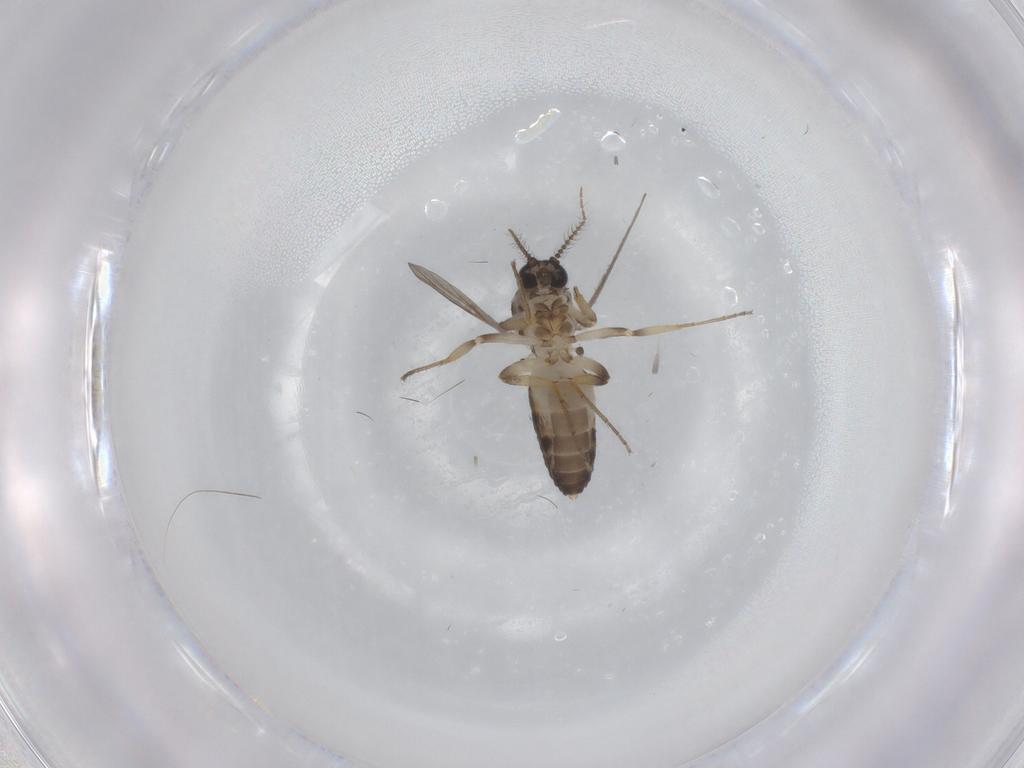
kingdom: Animalia
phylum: Arthropoda
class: Insecta
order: Diptera
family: Ceratopogonidae
